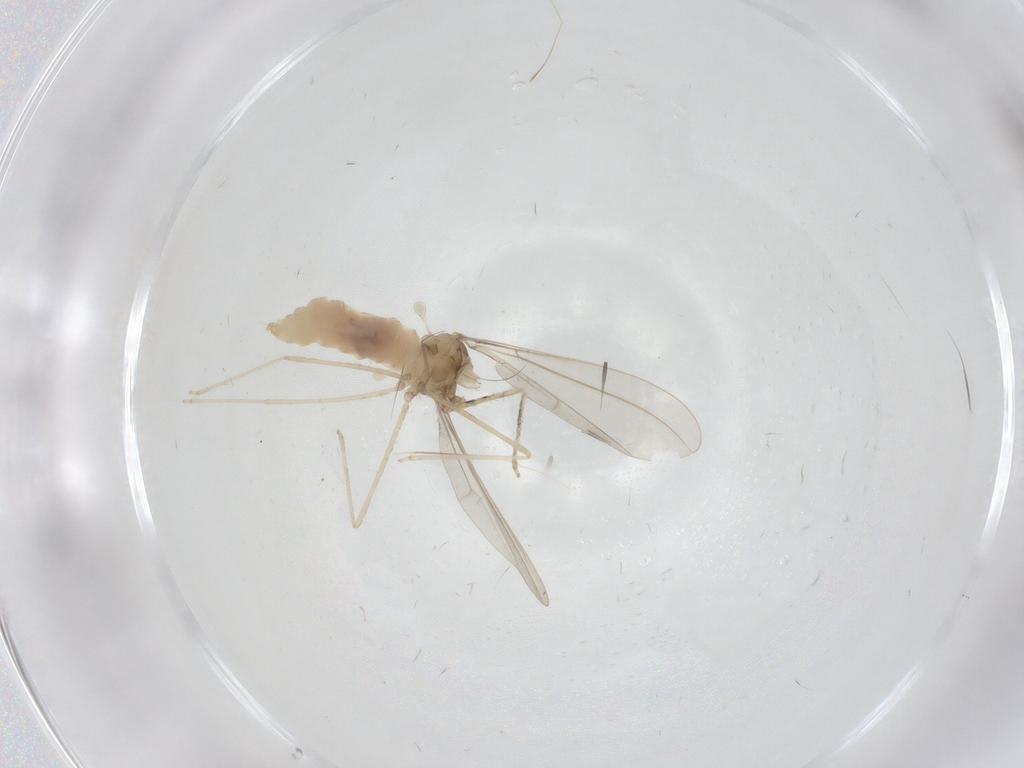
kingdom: Animalia
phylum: Arthropoda
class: Insecta
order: Diptera
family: Cecidomyiidae
